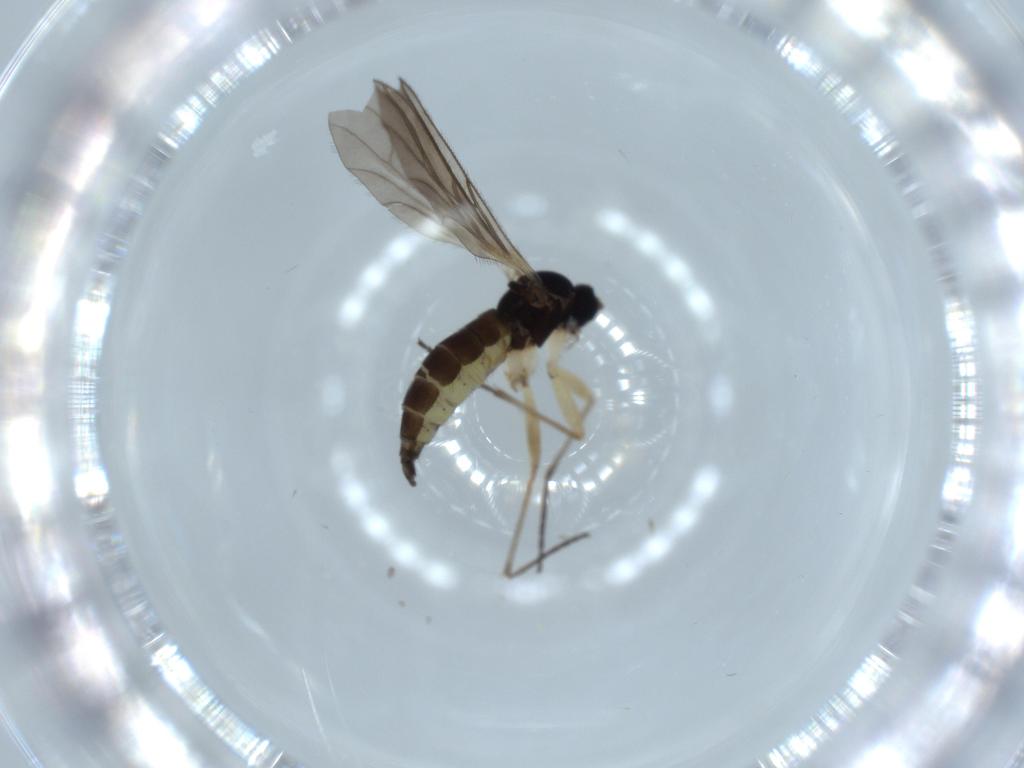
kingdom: Animalia
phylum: Arthropoda
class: Insecta
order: Diptera
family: Sciaridae
